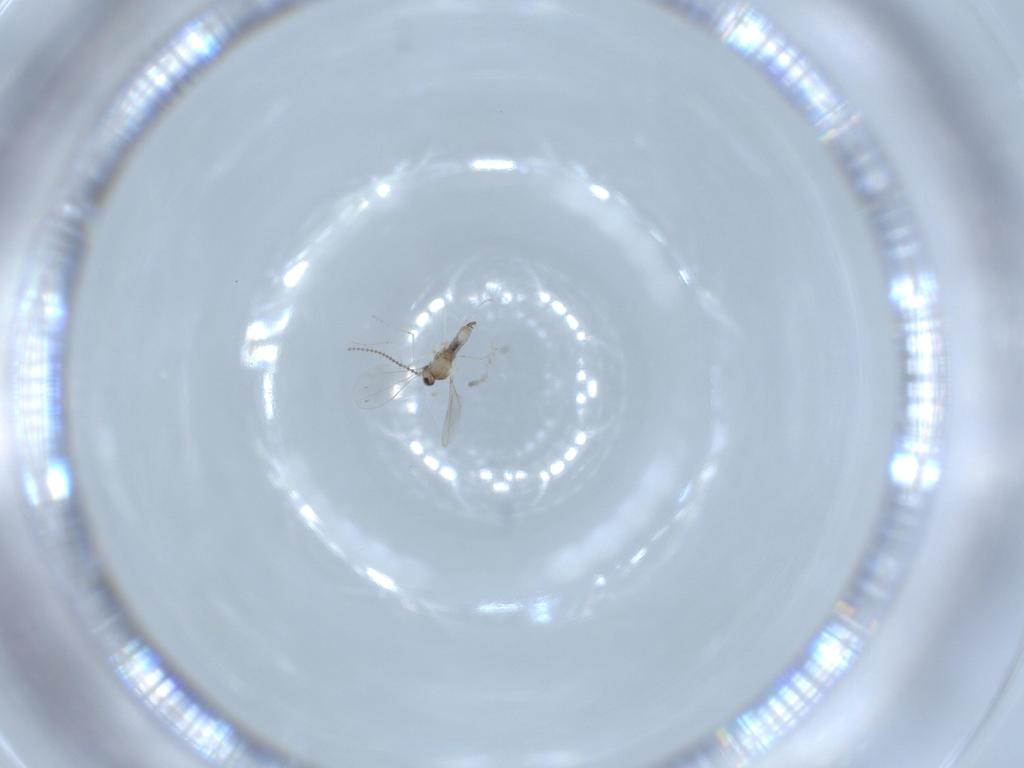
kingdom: Animalia
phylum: Arthropoda
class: Insecta
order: Diptera
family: Cecidomyiidae
